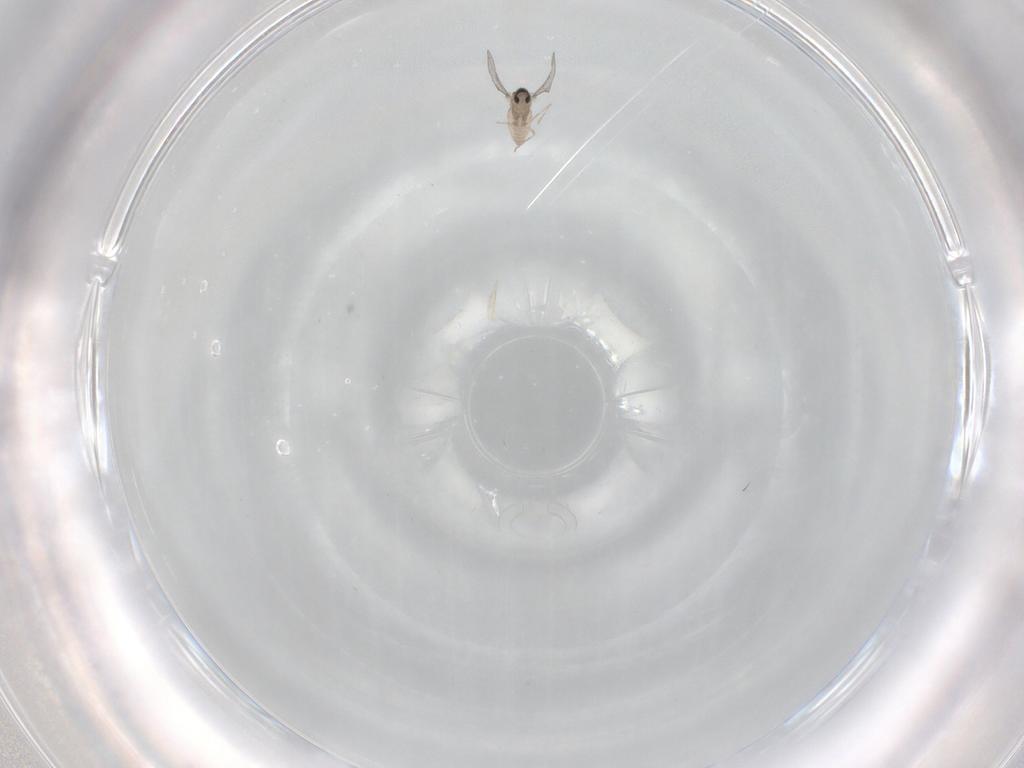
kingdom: Animalia
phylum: Arthropoda
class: Insecta
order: Diptera
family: Cecidomyiidae
